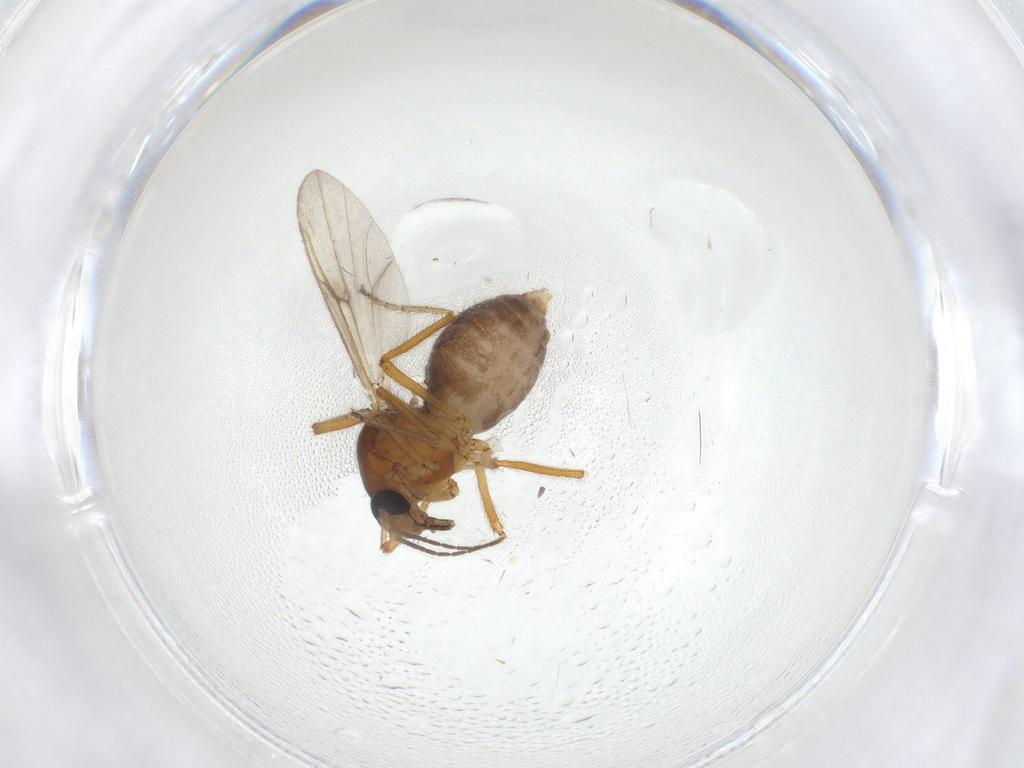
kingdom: Animalia
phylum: Arthropoda
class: Insecta
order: Diptera
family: Ceratopogonidae
